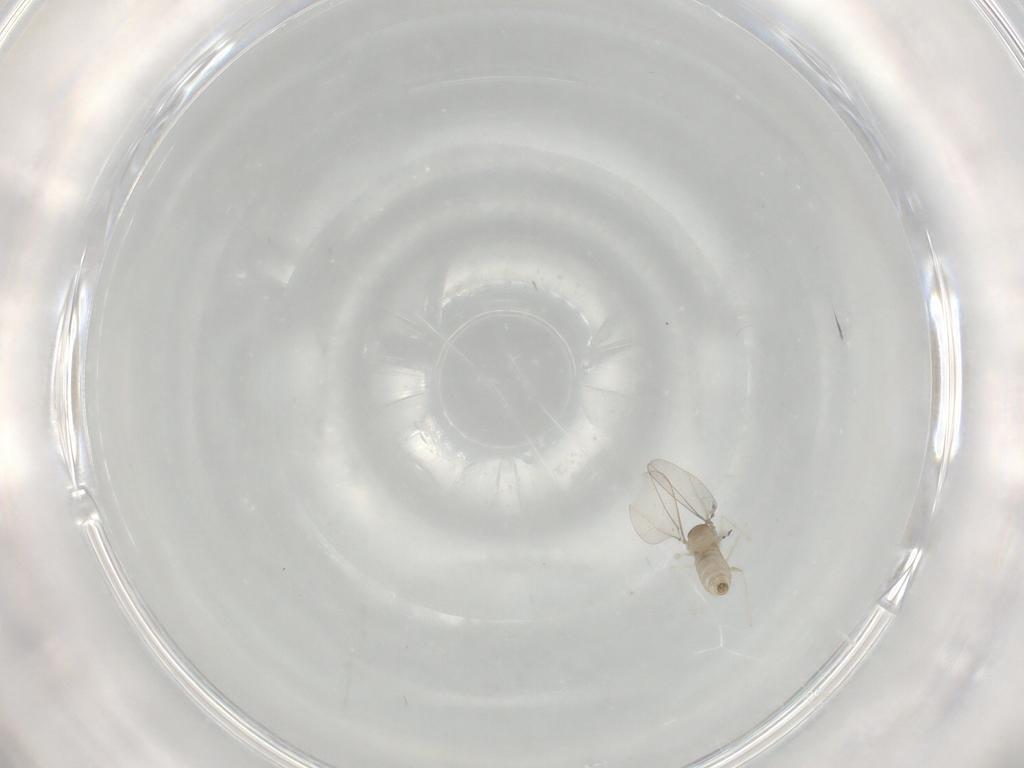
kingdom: Animalia
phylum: Arthropoda
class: Insecta
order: Diptera
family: Cecidomyiidae
